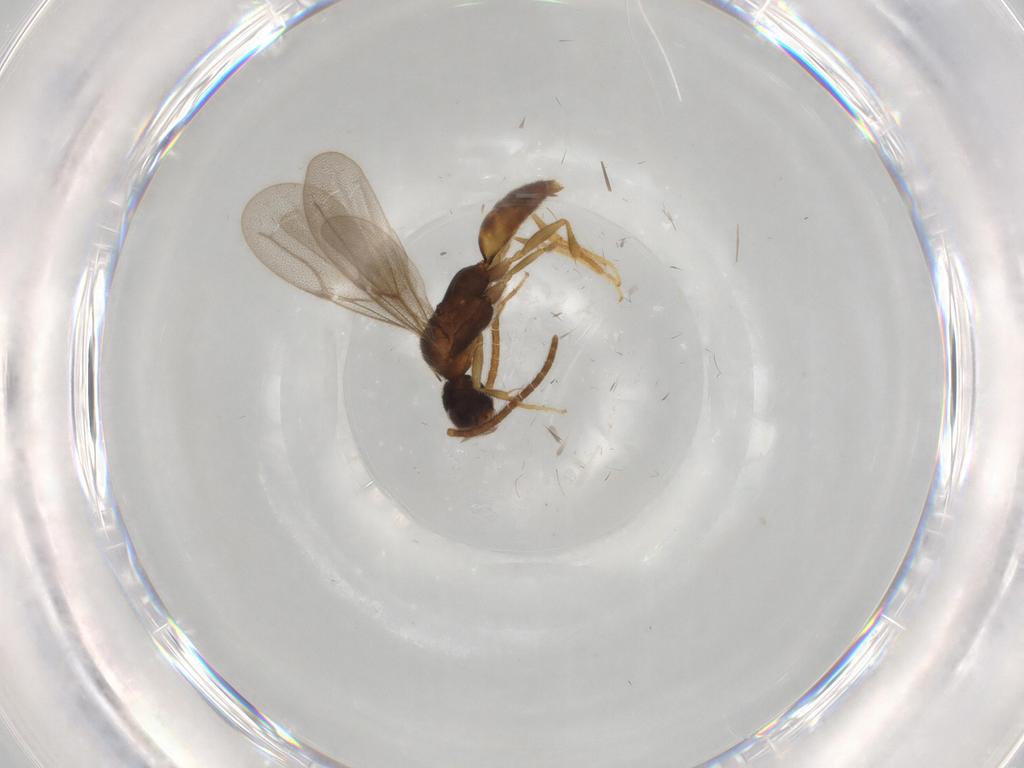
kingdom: Animalia
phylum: Arthropoda
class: Insecta
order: Hymenoptera
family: Bethylidae
